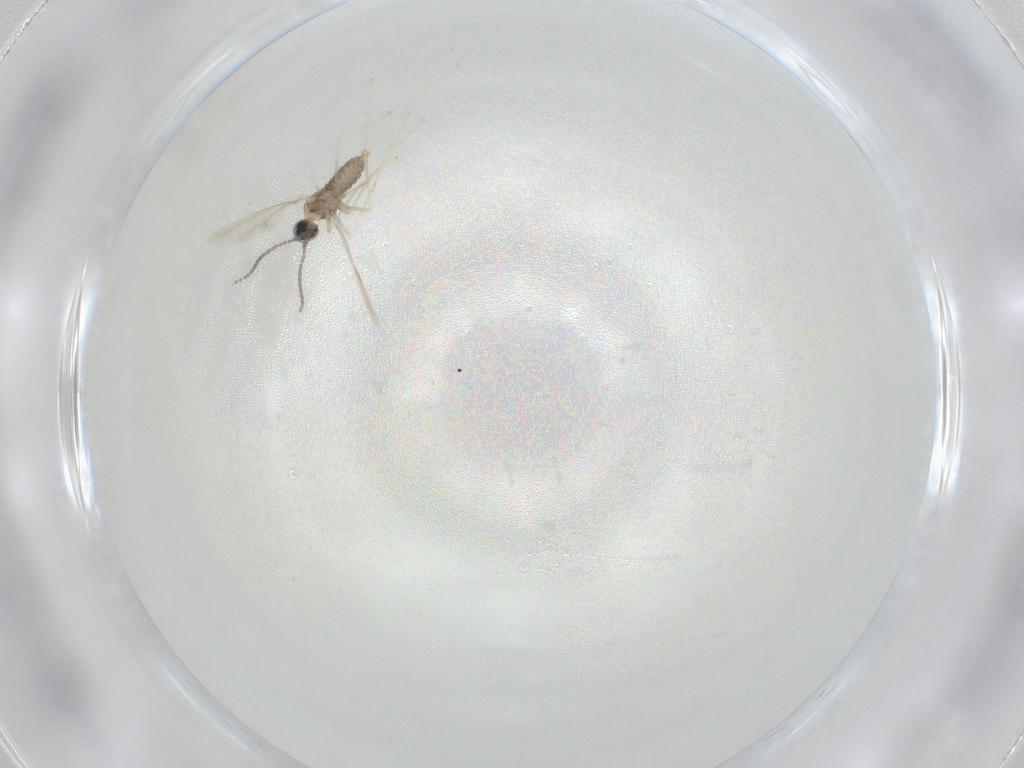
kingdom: Animalia
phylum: Arthropoda
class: Insecta
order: Diptera
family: Cecidomyiidae
